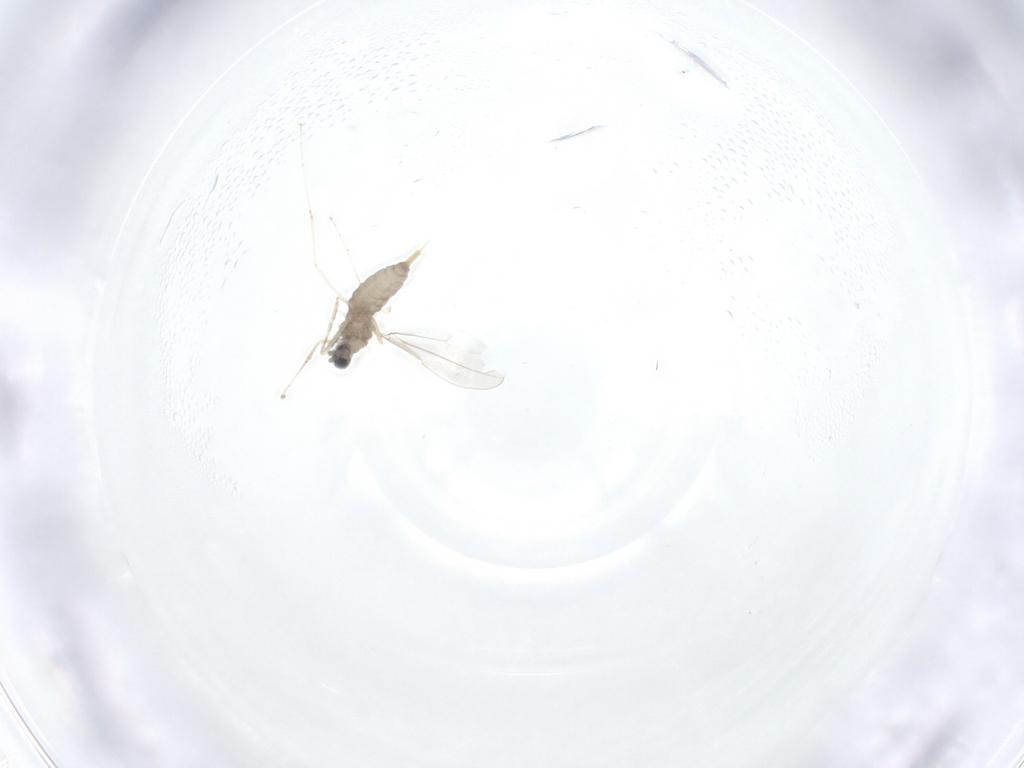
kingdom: Animalia
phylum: Arthropoda
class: Insecta
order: Diptera
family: Cecidomyiidae
